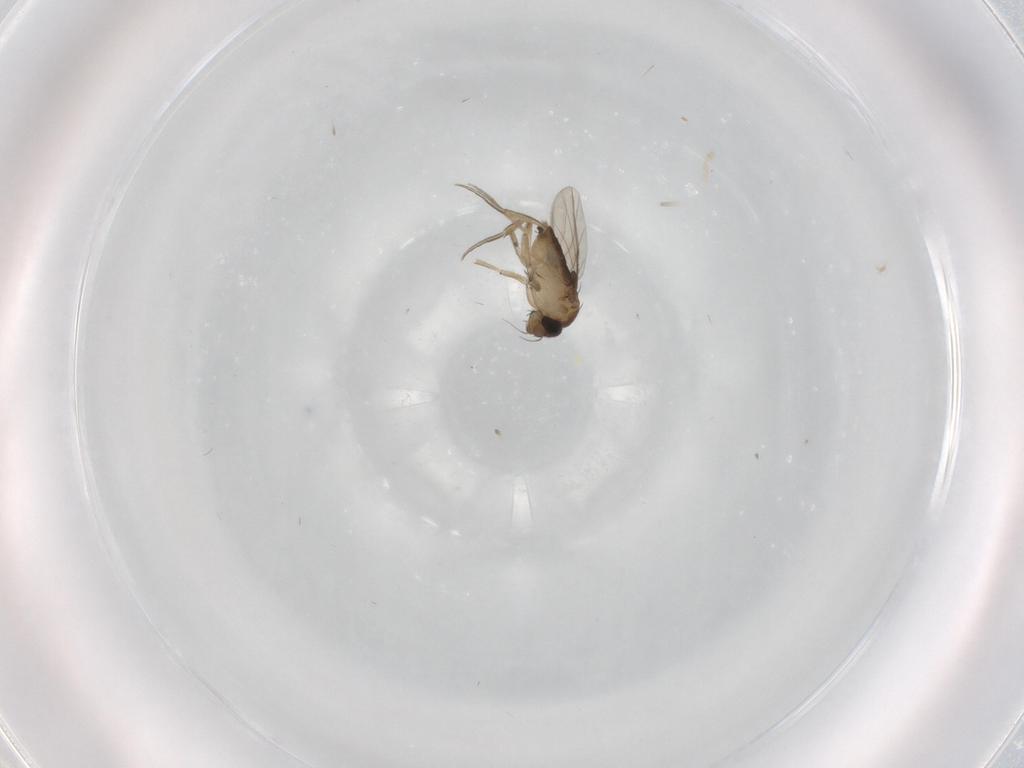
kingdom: Animalia
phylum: Arthropoda
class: Insecta
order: Diptera
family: Phoridae
